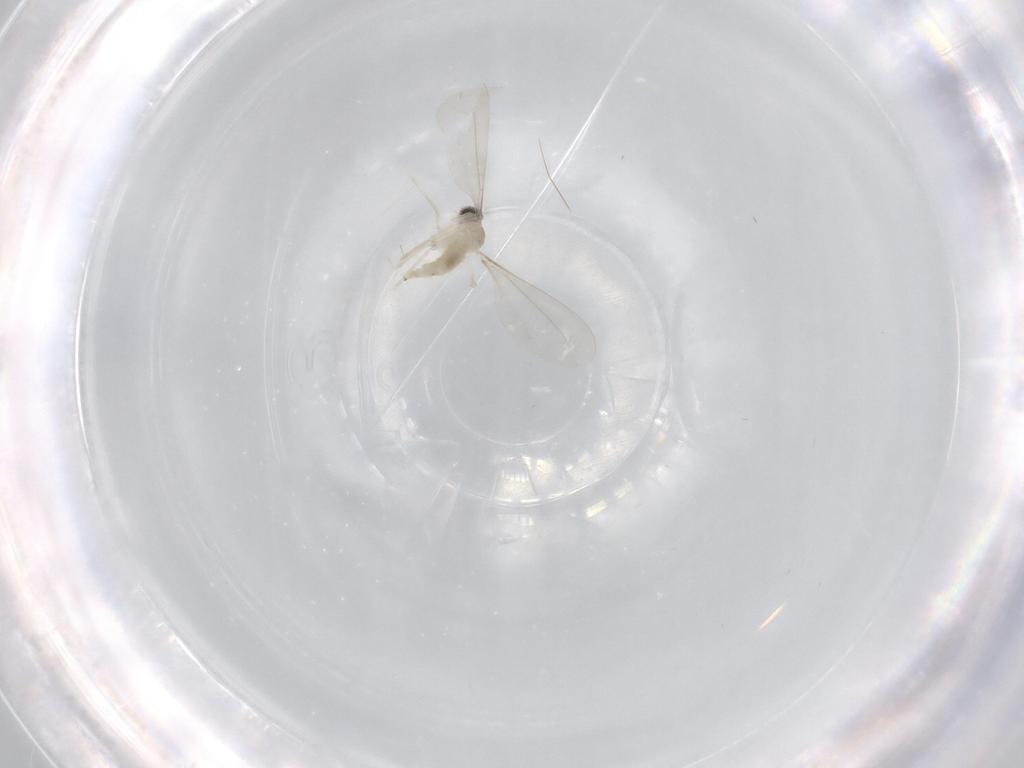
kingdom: Animalia
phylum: Arthropoda
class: Insecta
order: Diptera
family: Cecidomyiidae
